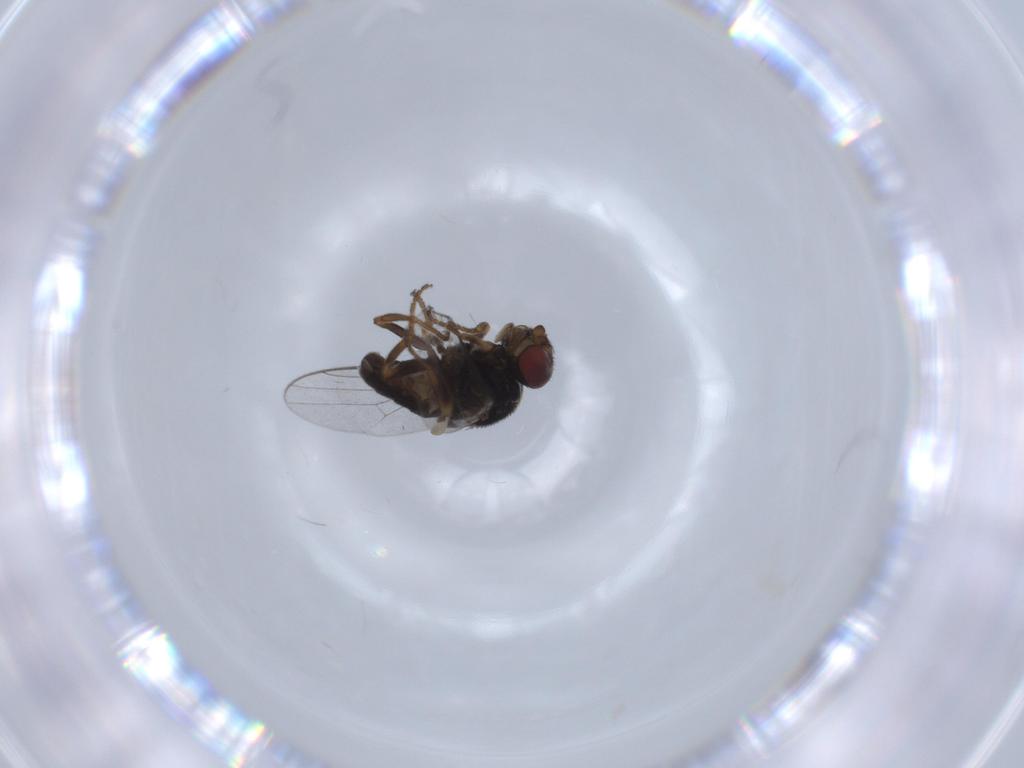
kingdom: Animalia
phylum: Arthropoda
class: Insecta
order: Diptera
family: Chloropidae
